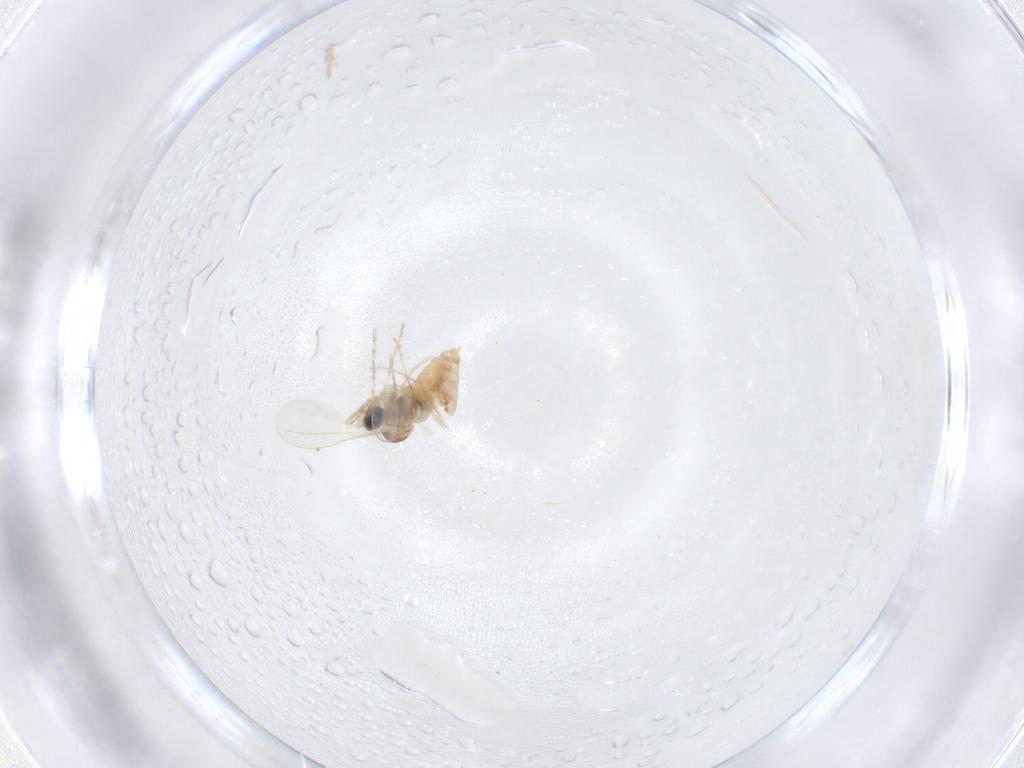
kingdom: Animalia
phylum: Arthropoda
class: Insecta
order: Diptera
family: Cecidomyiidae
